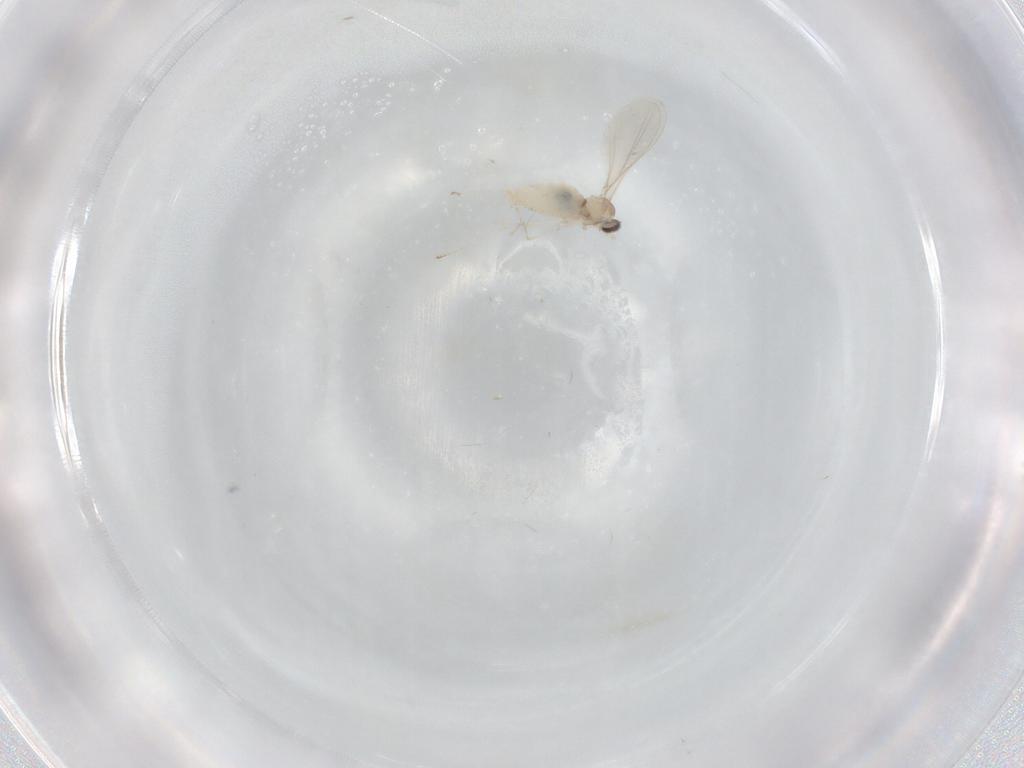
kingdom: Animalia
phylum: Arthropoda
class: Insecta
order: Diptera
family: Cecidomyiidae
